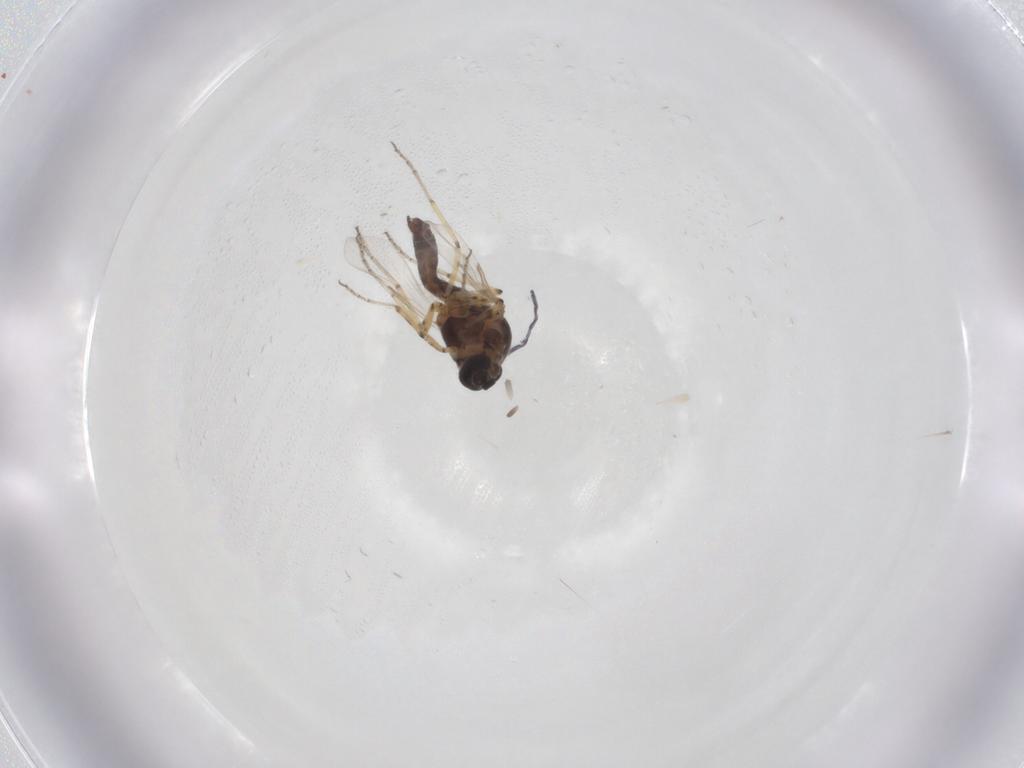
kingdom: Animalia
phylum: Arthropoda
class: Insecta
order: Diptera
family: Ceratopogonidae
